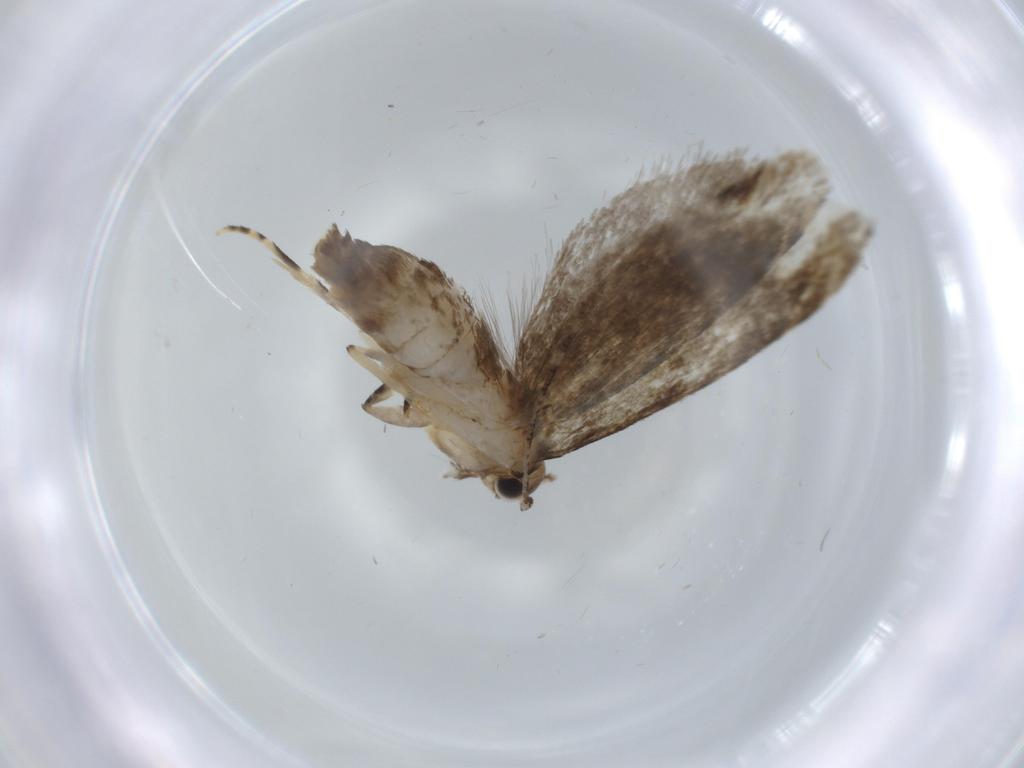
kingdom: Animalia
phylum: Arthropoda
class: Insecta
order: Lepidoptera
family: Tineidae
